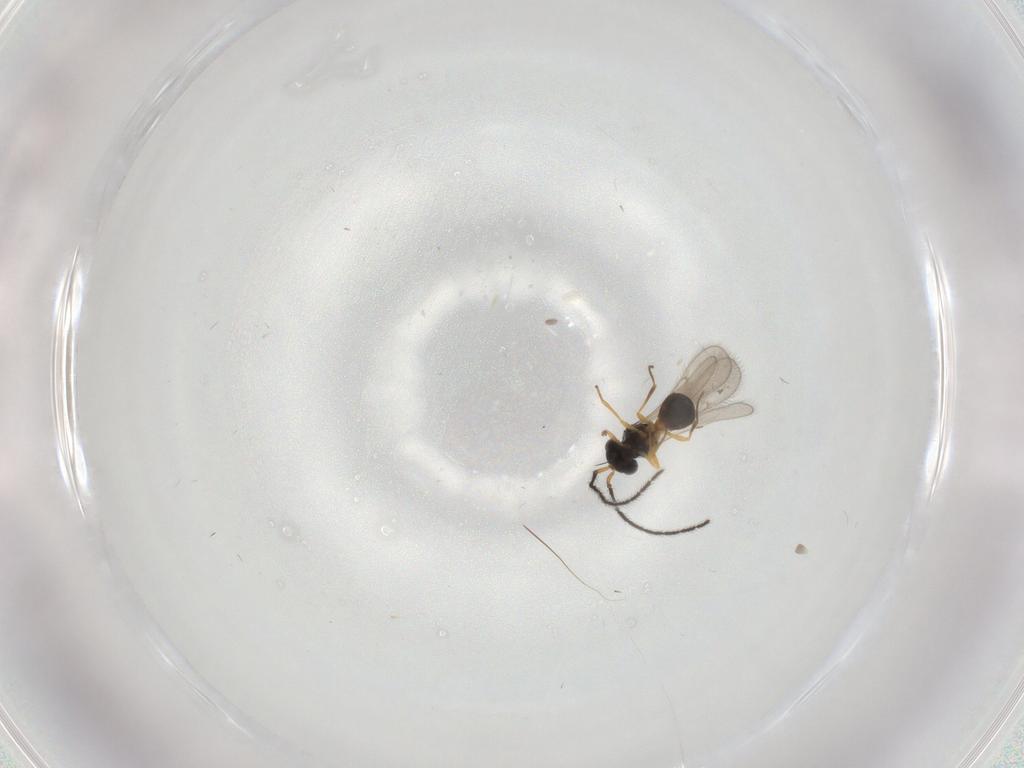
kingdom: Animalia
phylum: Arthropoda
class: Insecta
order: Hymenoptera
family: Scelionidae
